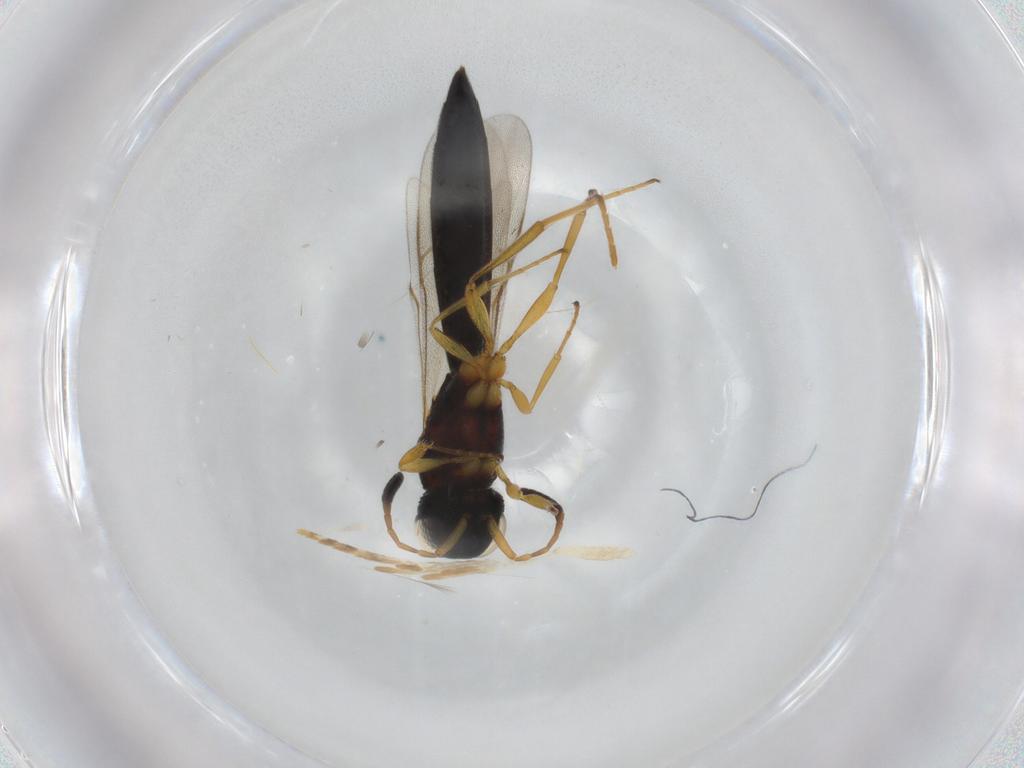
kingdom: Animalia
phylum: Arthropoda
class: Insecta
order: Hymenoptera
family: Scelionidae
